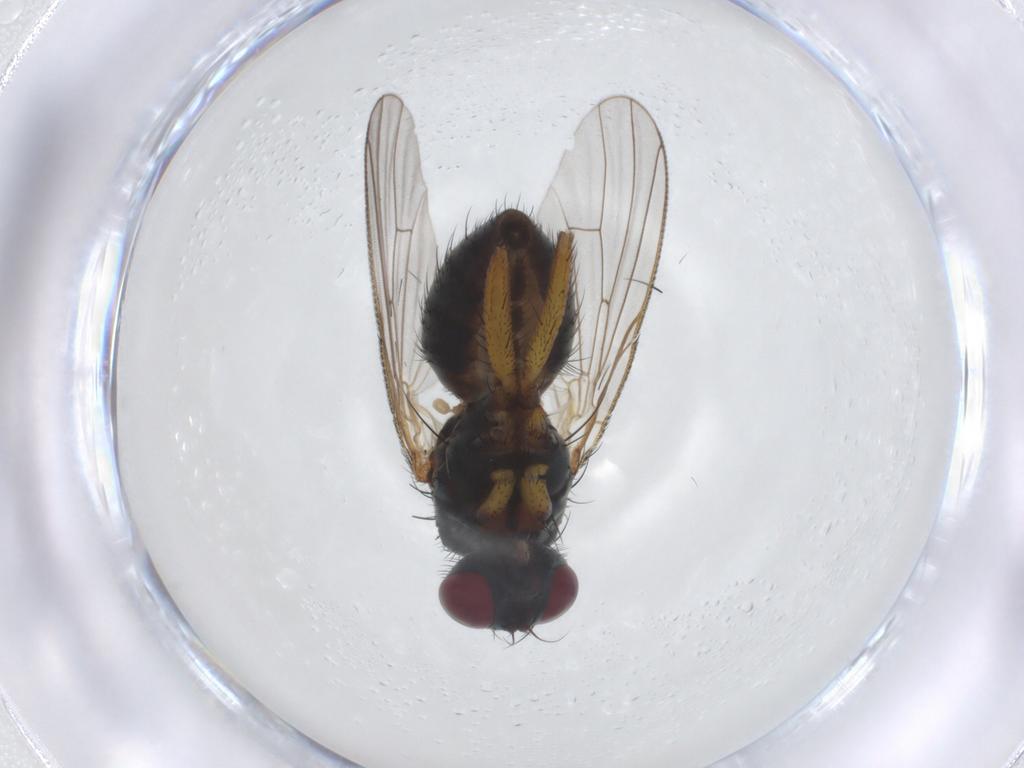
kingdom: Animalia
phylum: Arthropoda
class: Insecta
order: Diptera
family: Muscidae
